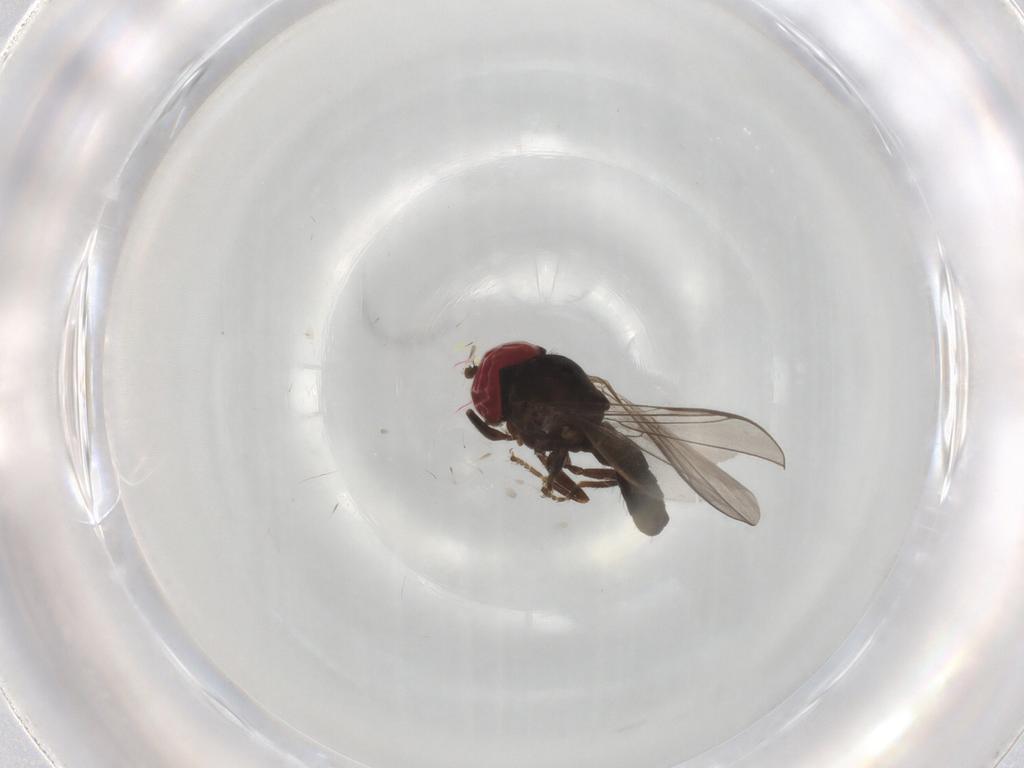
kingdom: Animalia
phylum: Arthropoda
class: Insecta
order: Diptera
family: Pipunculidae
